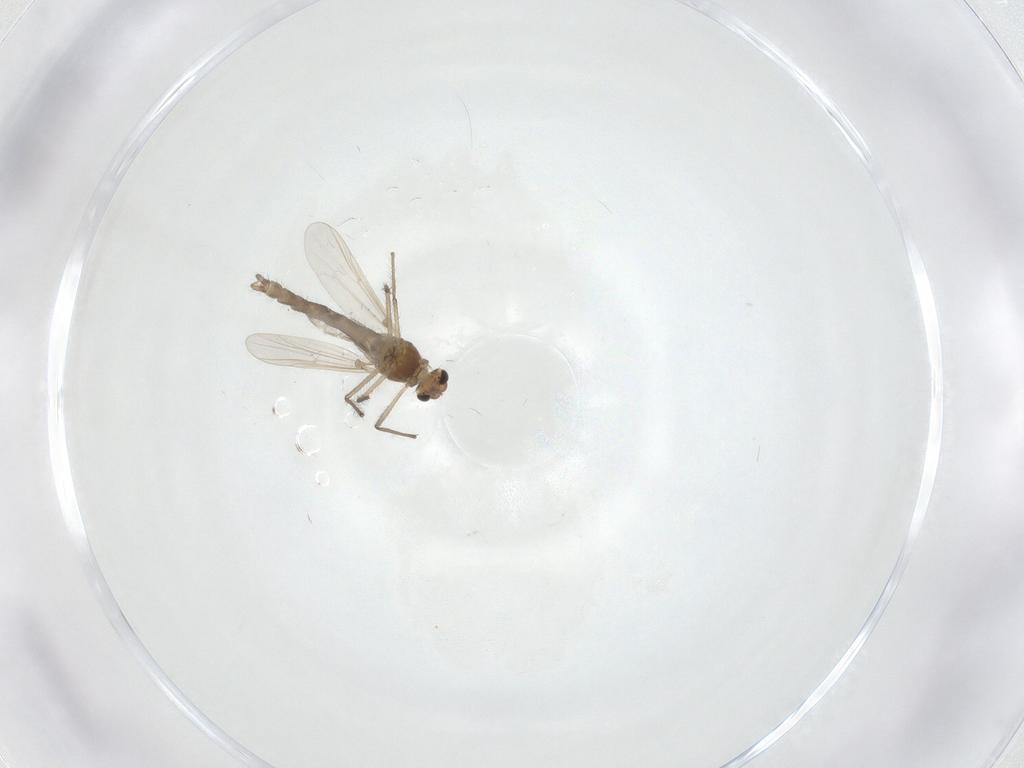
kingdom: Animalia
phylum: Arthropoda
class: Insecta
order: Diptera
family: Chironomidae
